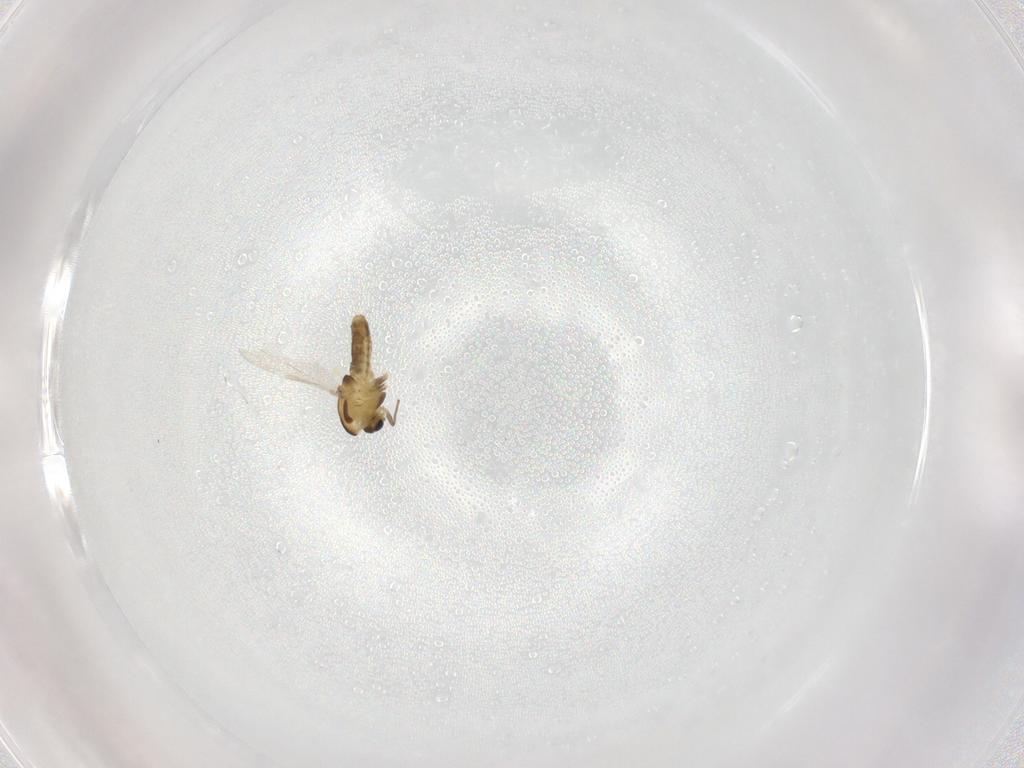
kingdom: Animalia
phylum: Arthropoda
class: Insecta
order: Diptera
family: Chironomidae
